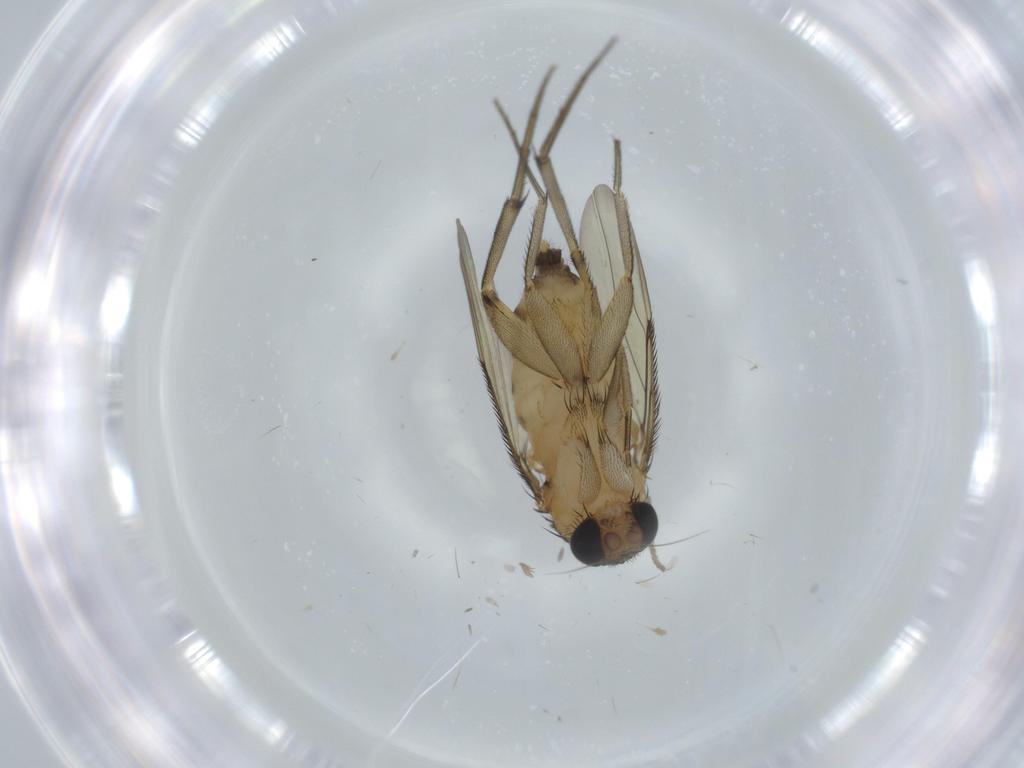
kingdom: Animalia
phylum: Arthropoda
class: Insecta
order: Diptera
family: Phoridae
